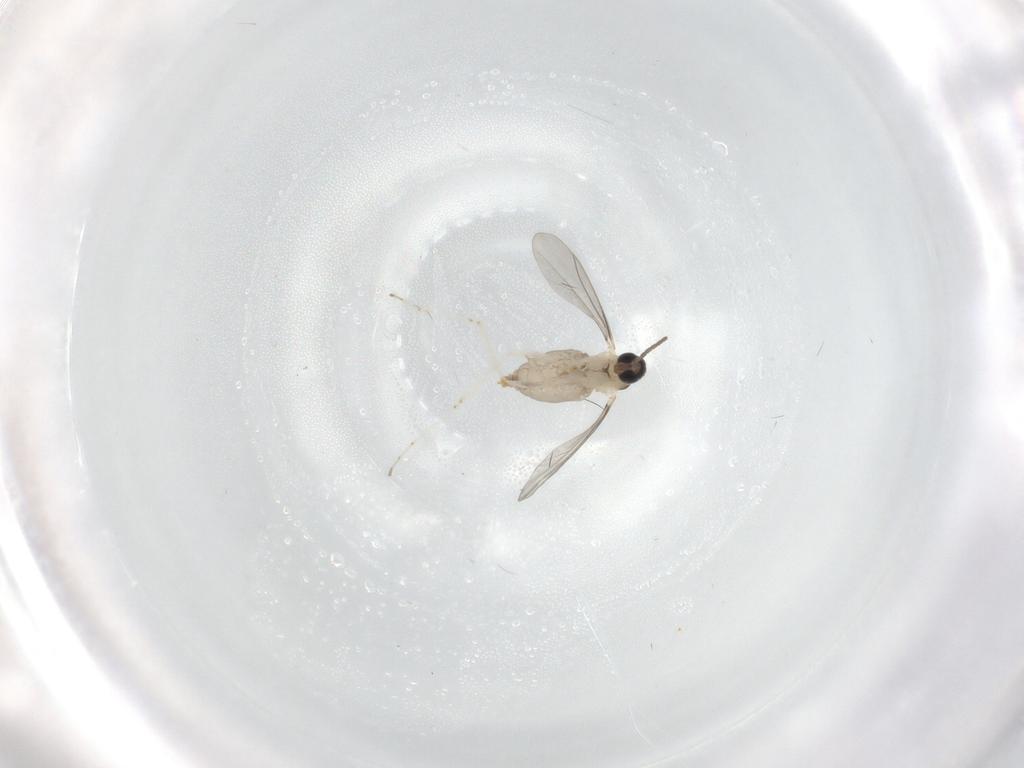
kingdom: Animalia
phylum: Arthropoda
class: Insecta
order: Diptera
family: Cecidomyiidae
